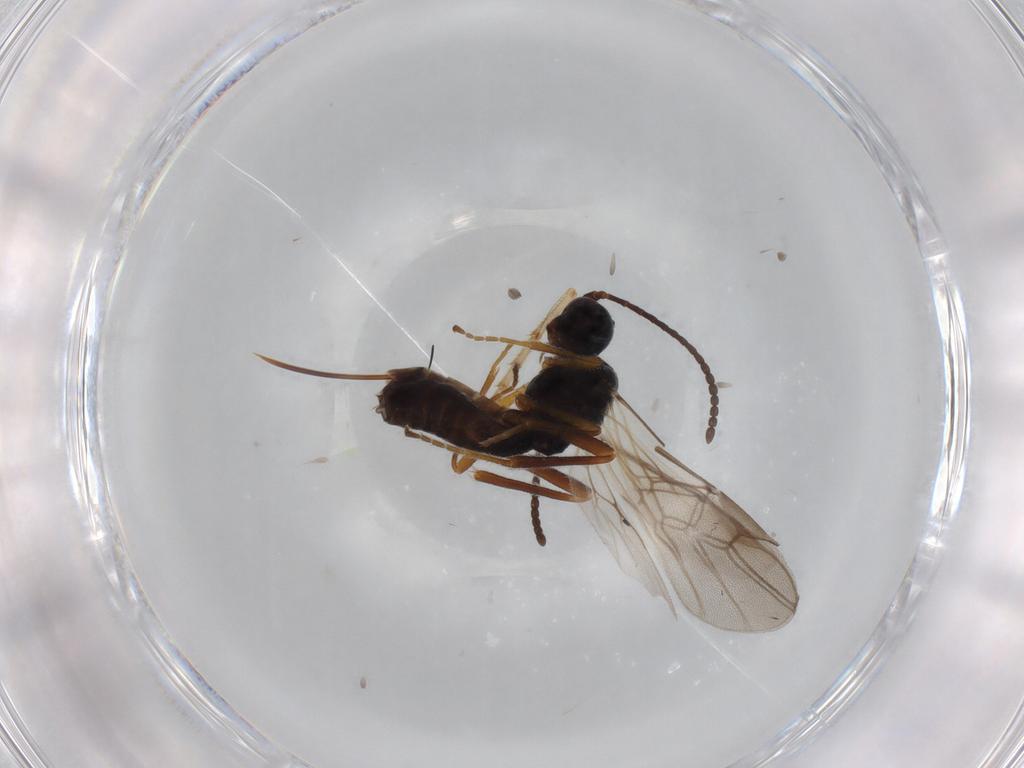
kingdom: Animalia
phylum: Arthropoda
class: Insecta
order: Hymenoptera
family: Braconidae
